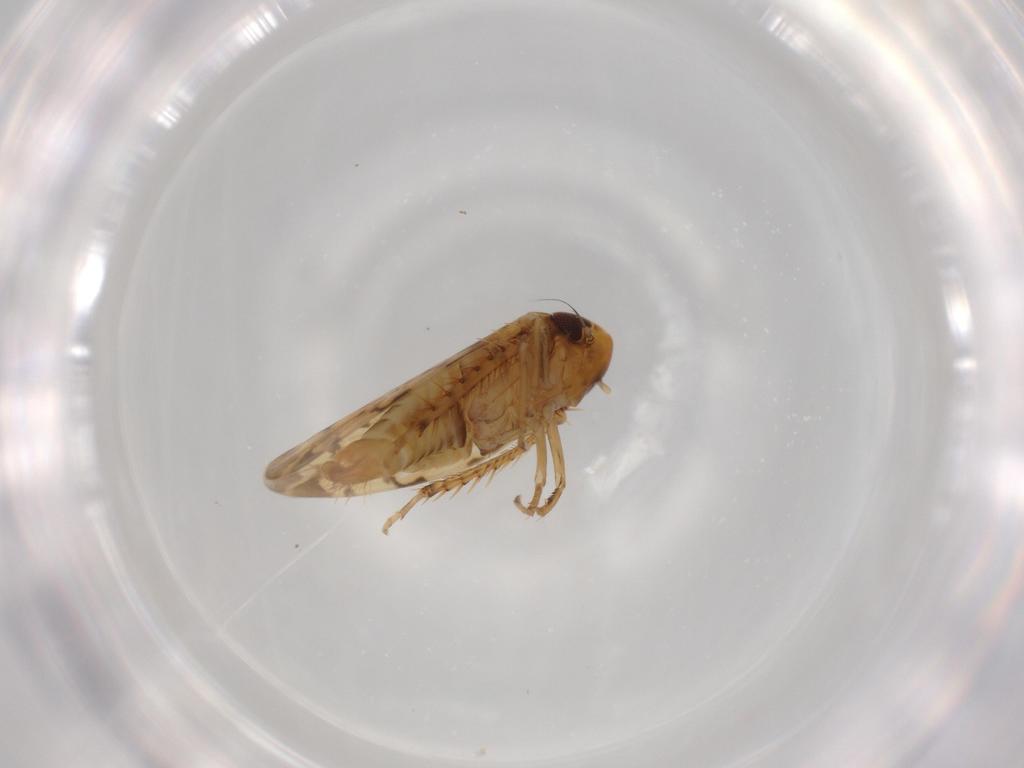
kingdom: Animalia
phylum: Arthropoda
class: Insecta
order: Hemiptera
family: Cicadellidae
